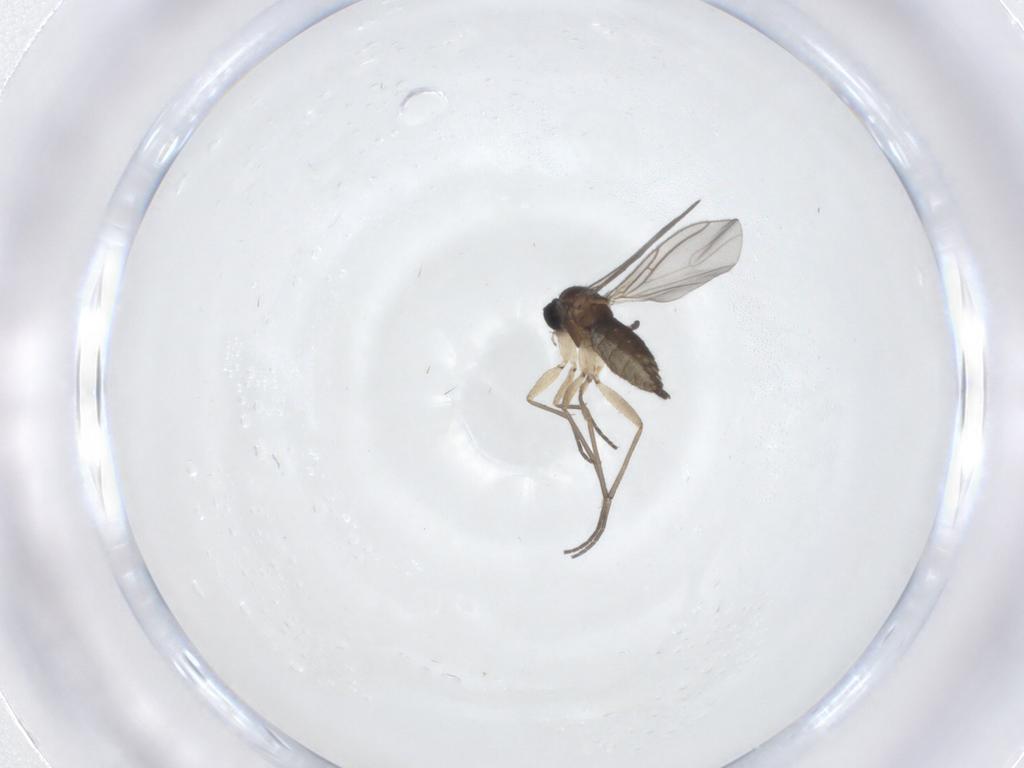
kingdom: Animalia
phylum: Arthropoda
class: Insecta
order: Diptera
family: Sciaridae
